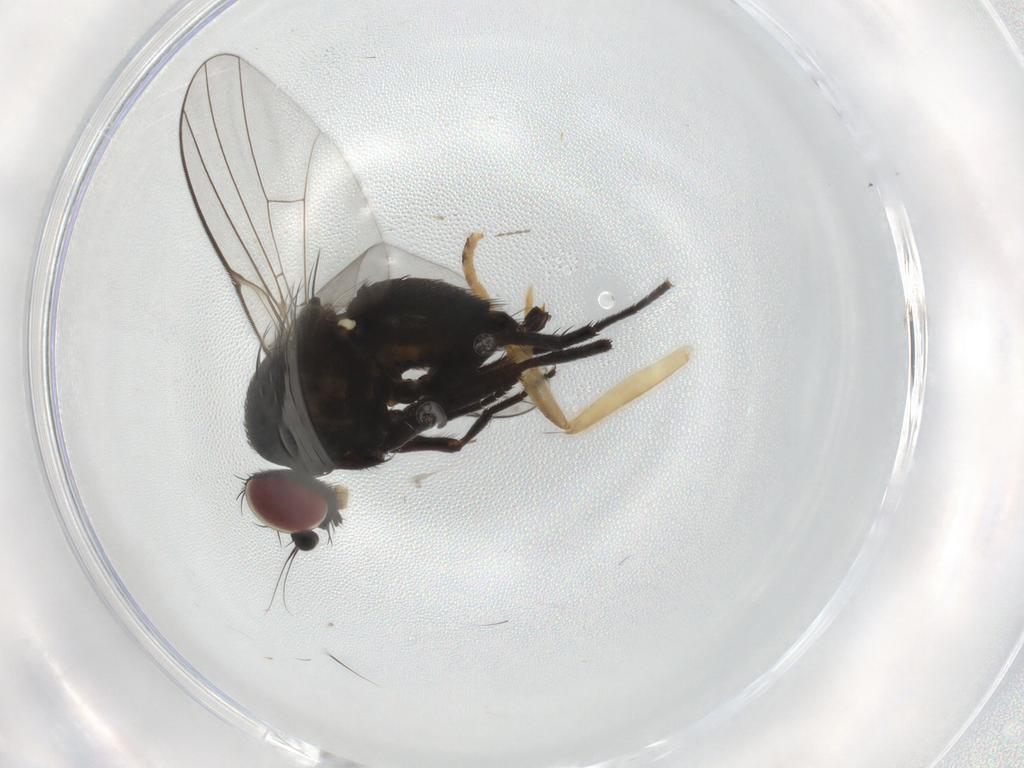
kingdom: Animalia
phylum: Arthropoda
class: Insecta
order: Diptera
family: Agromyzidae
